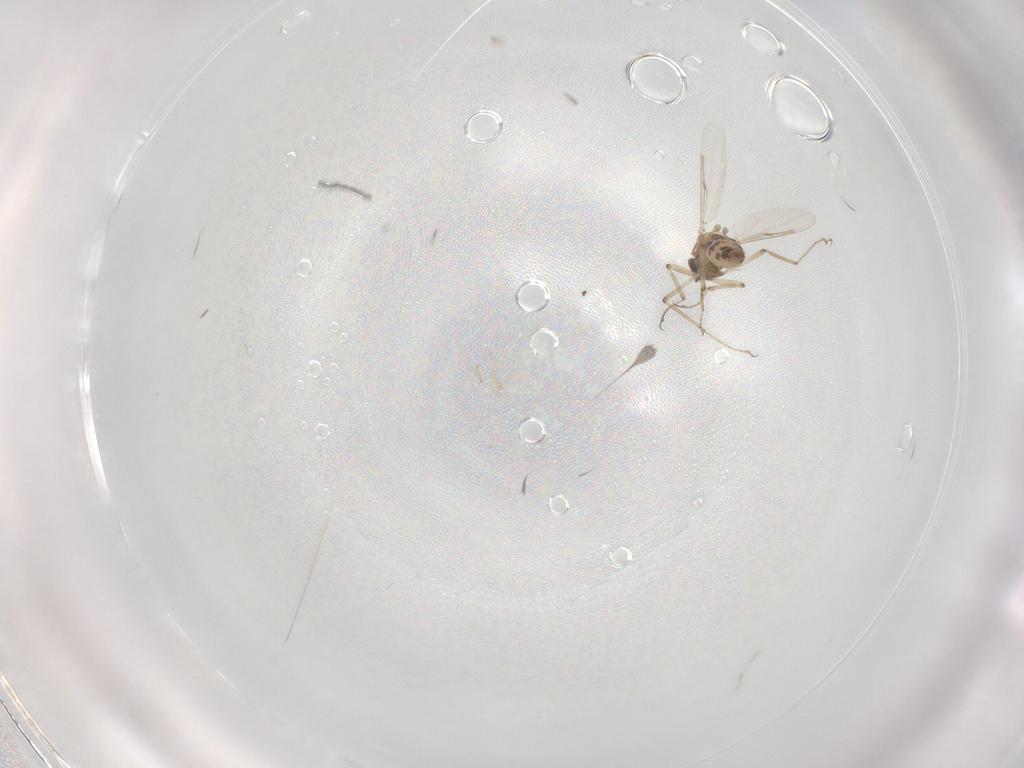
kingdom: Animalia
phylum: Arthropoda
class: Insecta
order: Diptera
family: Ceratopogonidae
